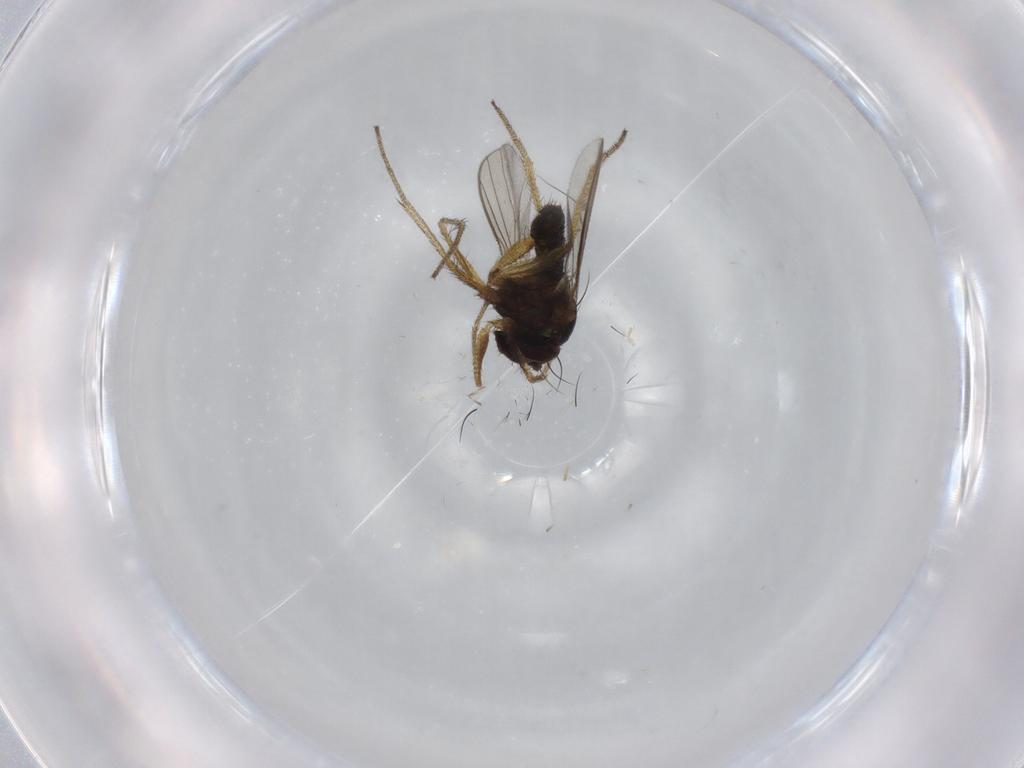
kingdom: Animalia
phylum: Arthropoda
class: Insecta
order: Diptera
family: Dolichopodidae
